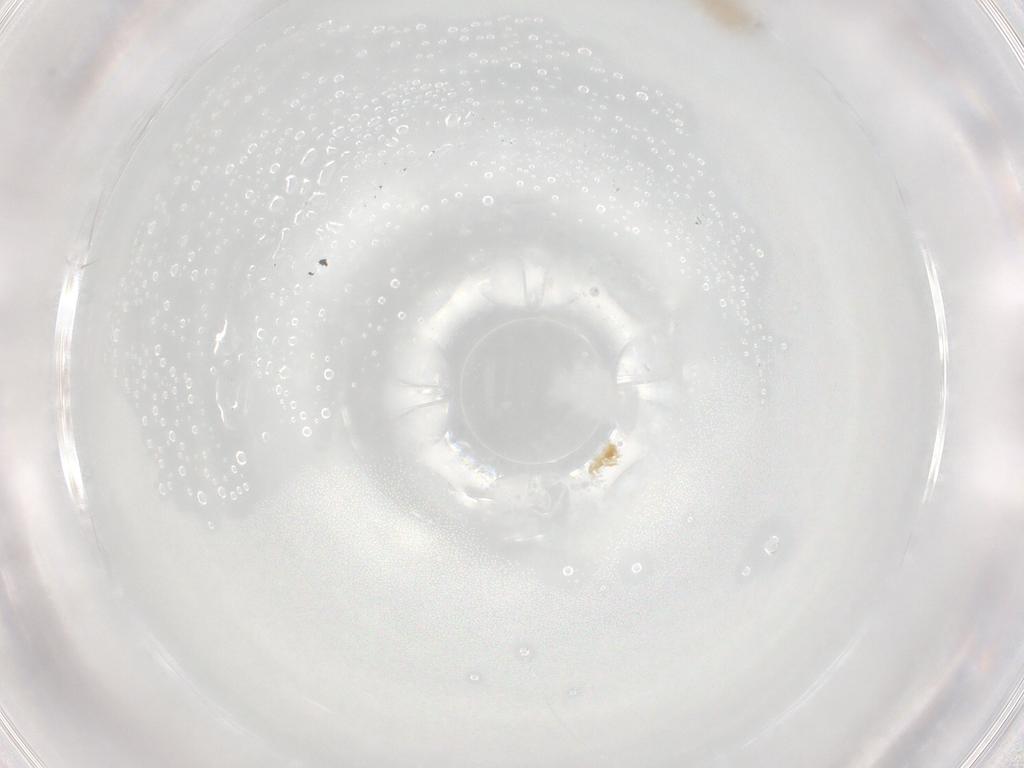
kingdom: Animalia
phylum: Arthropoda
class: Insecta
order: Diptera
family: Cecidomyiidae
